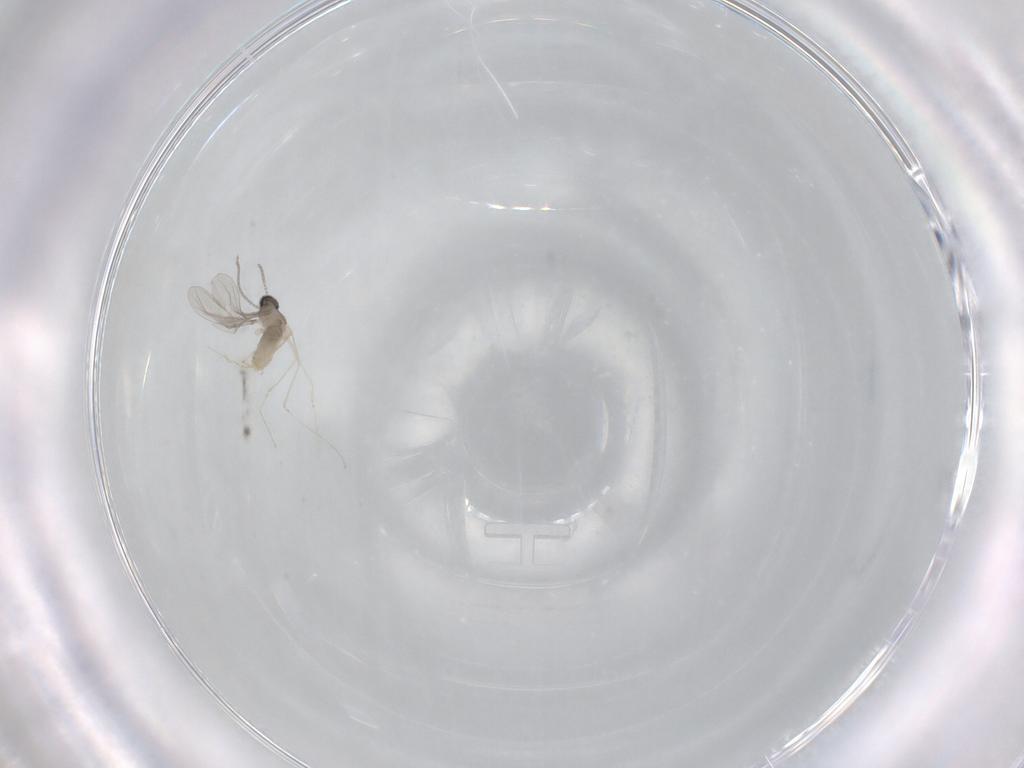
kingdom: Animalia
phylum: Arthropoda
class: Insecta
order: Diptera
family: Cecidomyiidae
